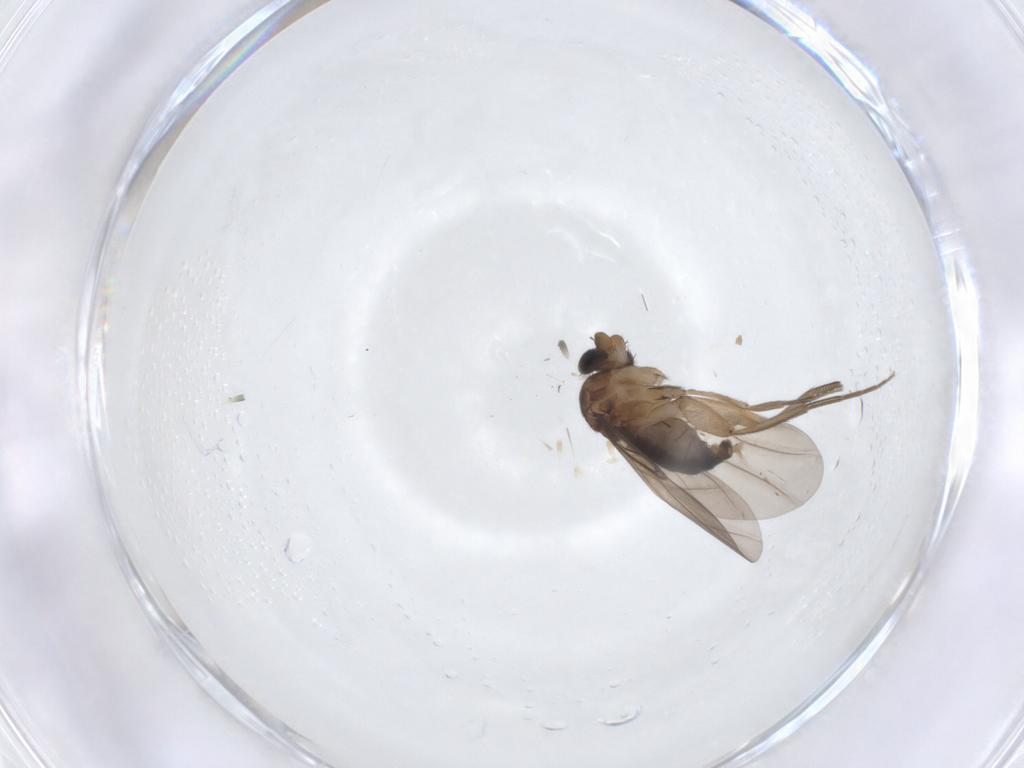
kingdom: Animalia
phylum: Arthropoda
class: Insecta
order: Diptera
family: Phoridae
